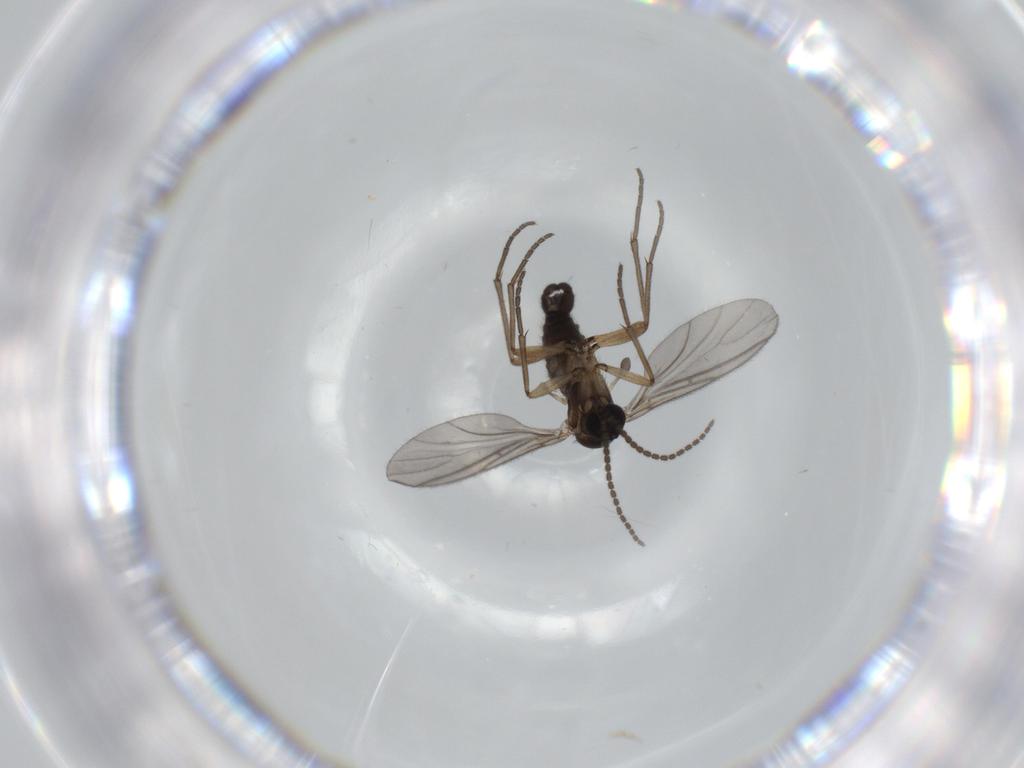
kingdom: Animalia
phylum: Arthropoda
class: Insecta
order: Diptera
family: Sciaridae
